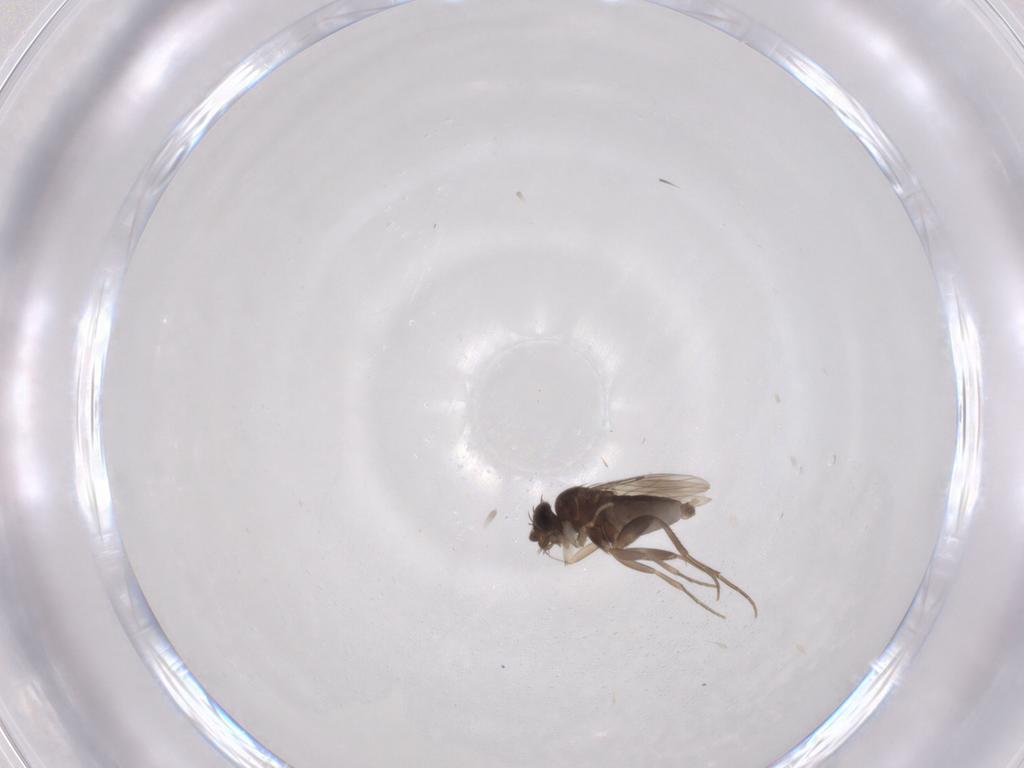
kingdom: Animalia
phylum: Arthropoda
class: Insecta
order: Diptera
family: Phoridae
